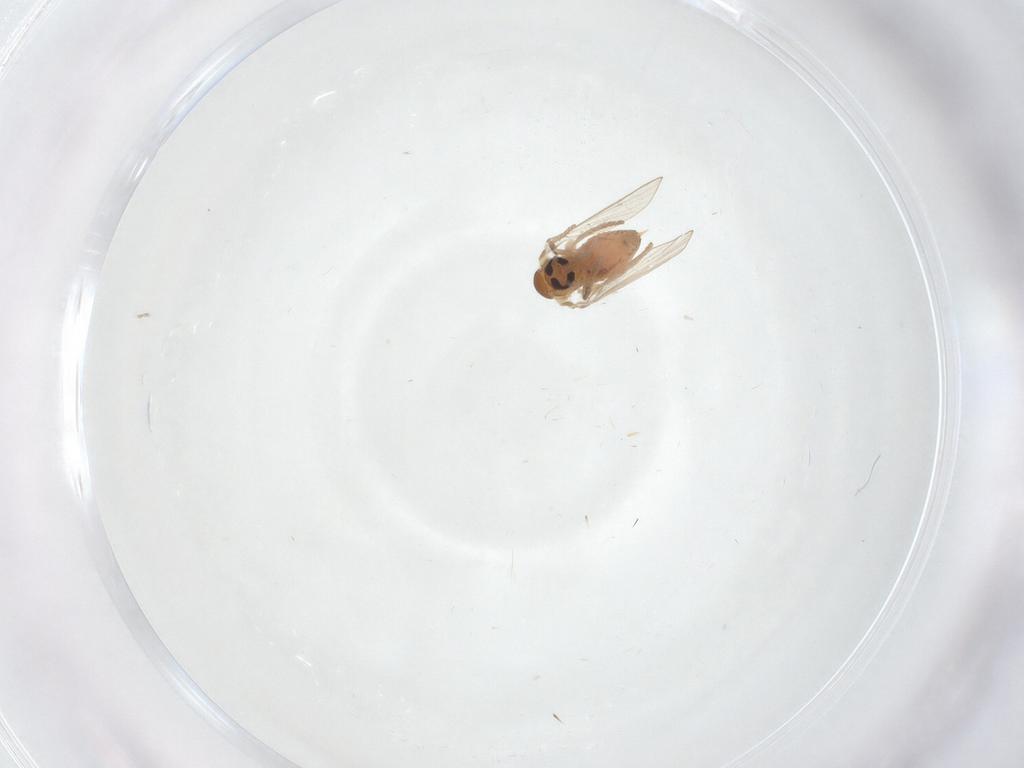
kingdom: Animalia
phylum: Arthropoda
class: Insecta
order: Diptera
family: Psychodidae
